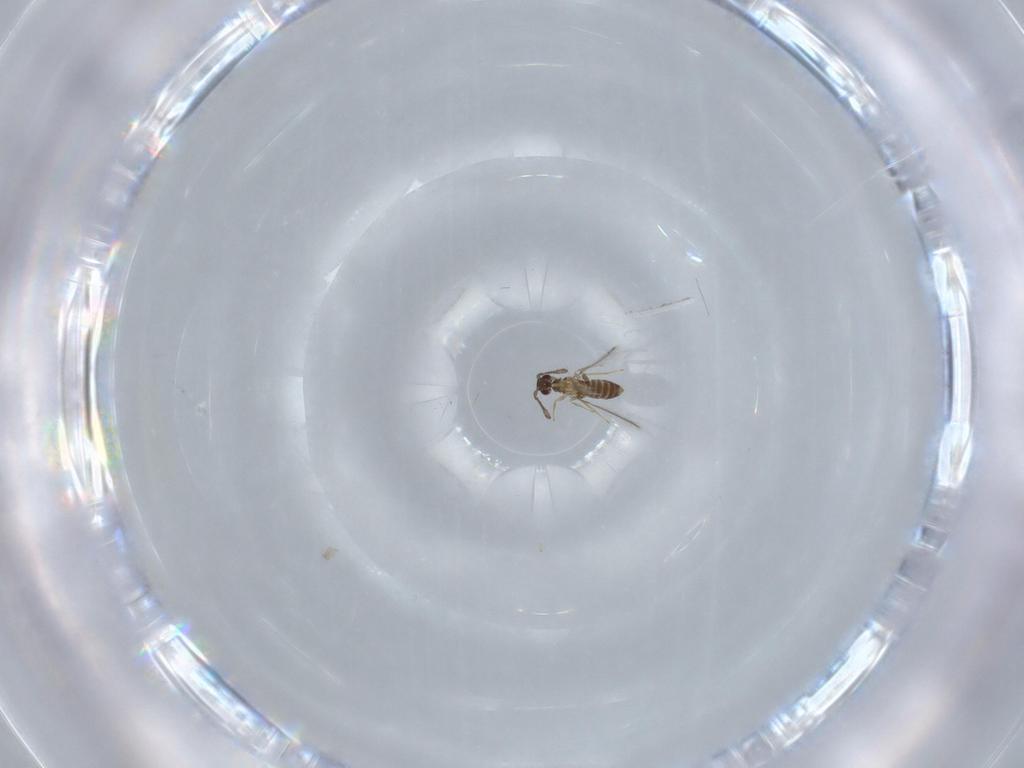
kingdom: Animalia
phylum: Arthropoda
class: Insecta
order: Hymenoptera
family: Mymaridae
